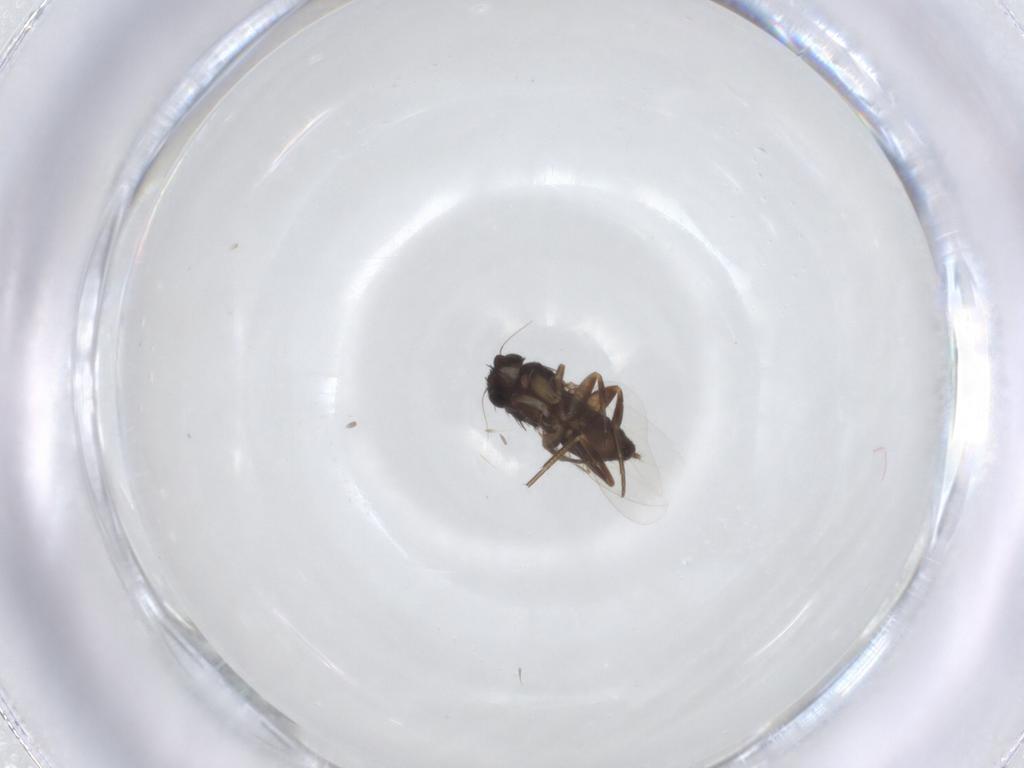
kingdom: Animalia
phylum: Arthropoda
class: Insecta
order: Diptera
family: Phoridae
